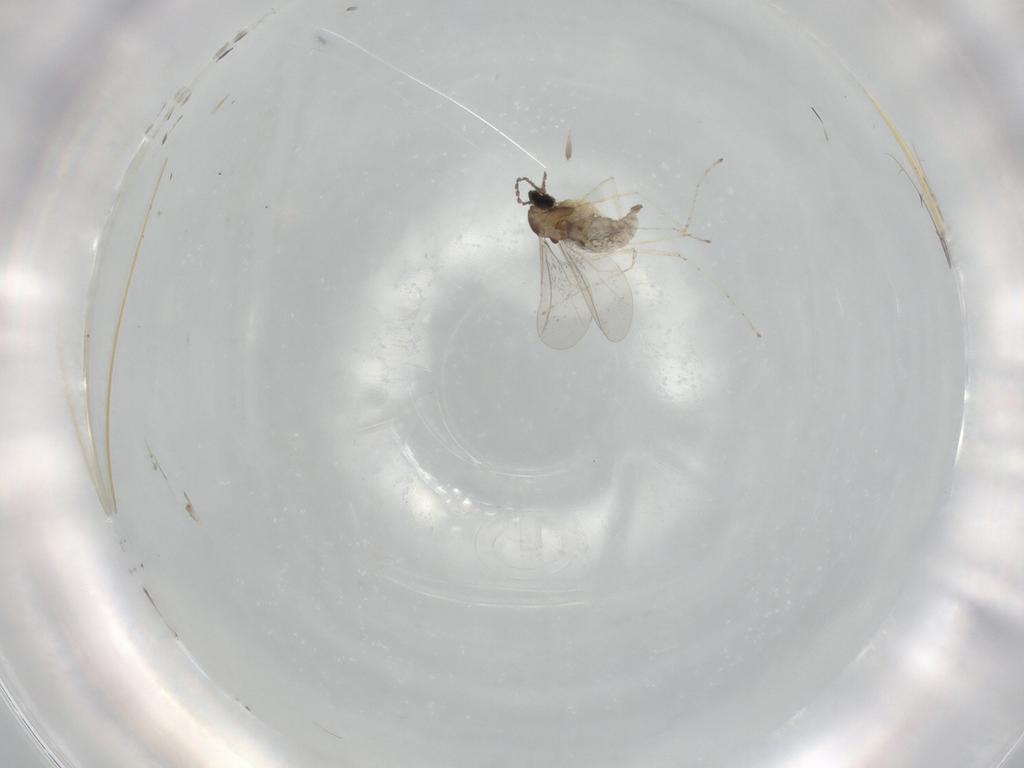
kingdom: Animalia
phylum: Arthropoda
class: Insecta
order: Diptera
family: Cecidomyiidae
